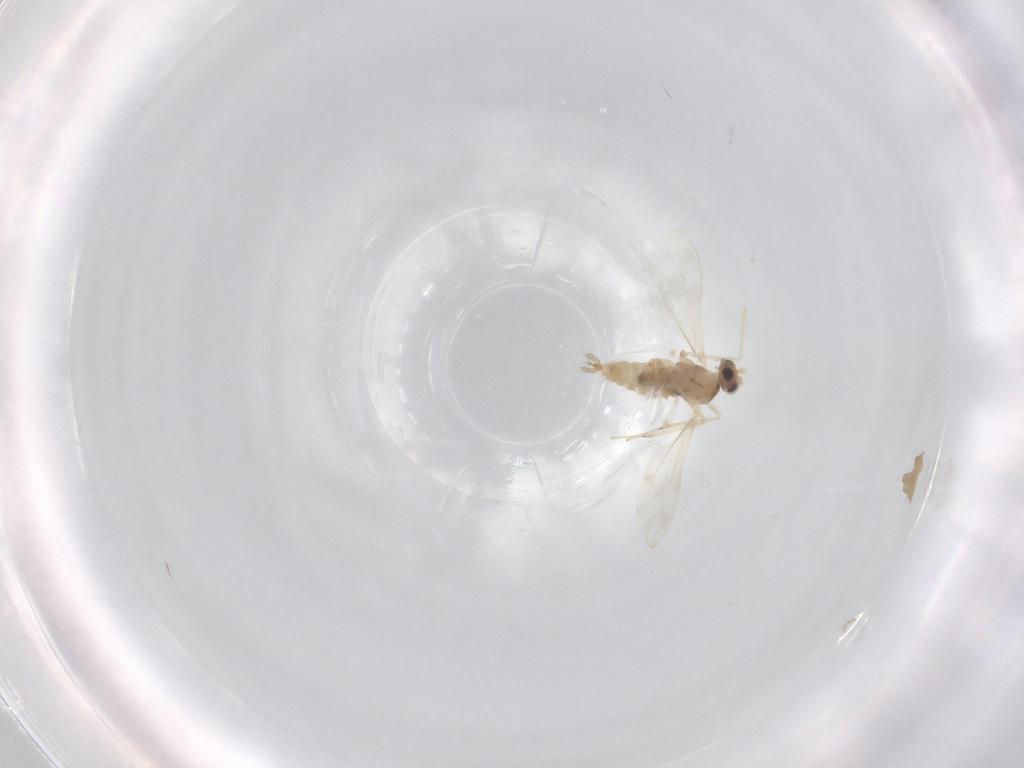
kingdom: Animalia
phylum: Arthropoda
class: Insecta
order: Diptera
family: Cecidomyiidae
